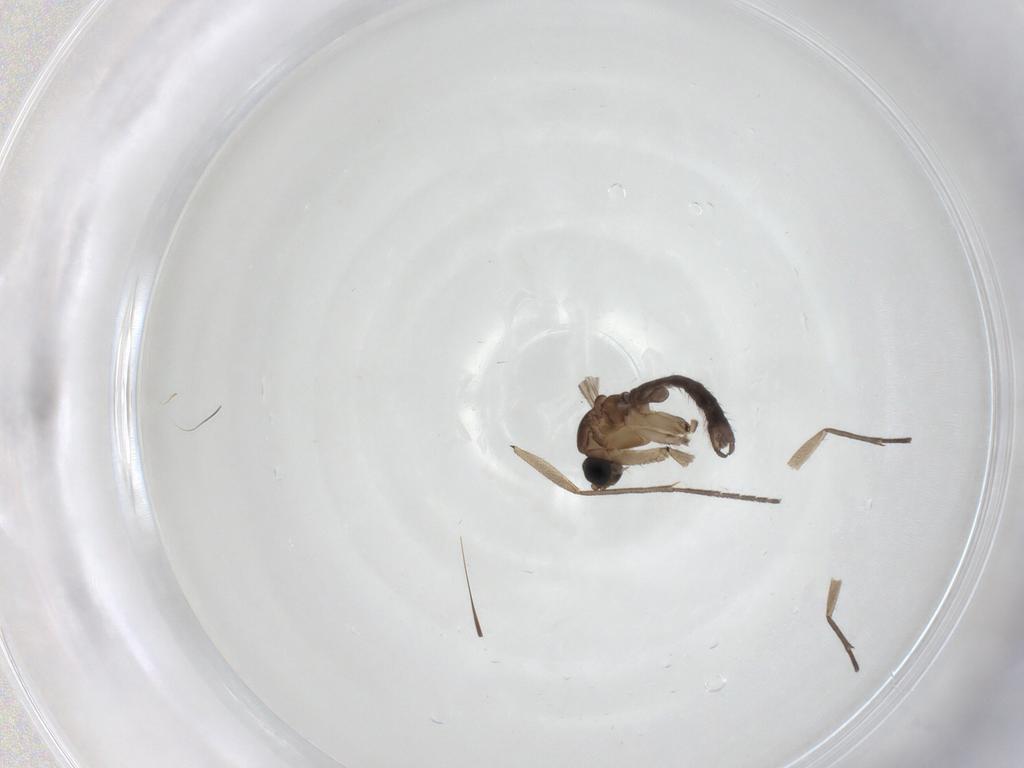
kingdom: Animalia
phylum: Arthropoda
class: Insecta
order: Diptera
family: Sciaridae
